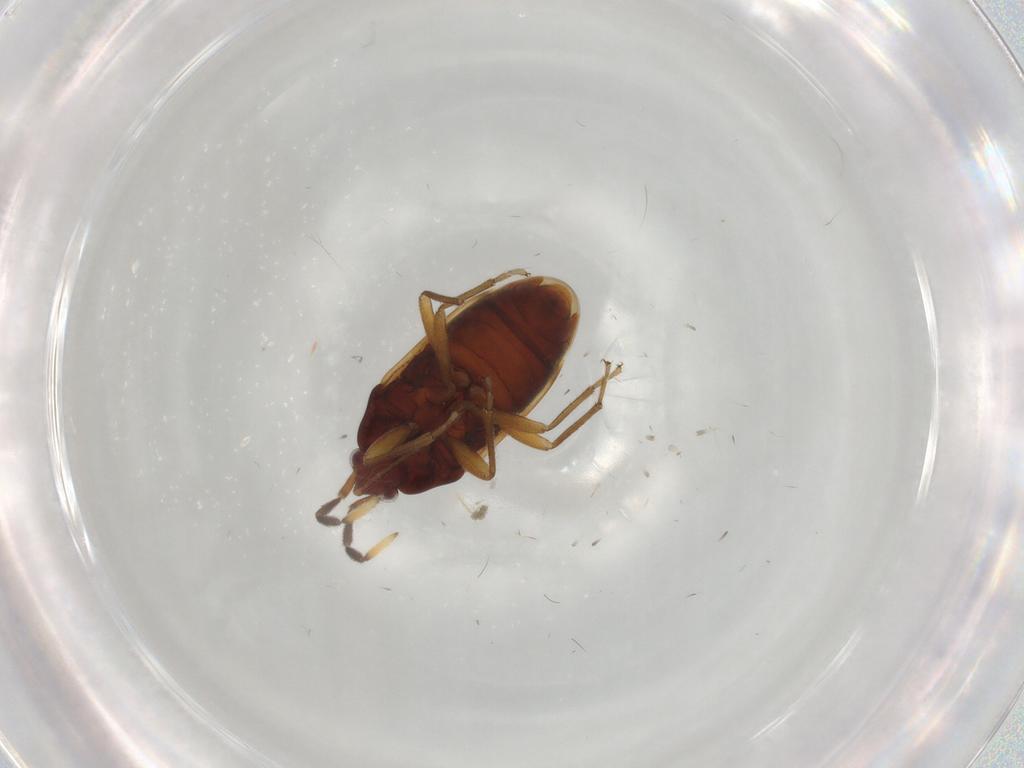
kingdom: Animalia
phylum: Arthropoda
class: Insecta
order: Hemiptera
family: Rhyparochromidae
